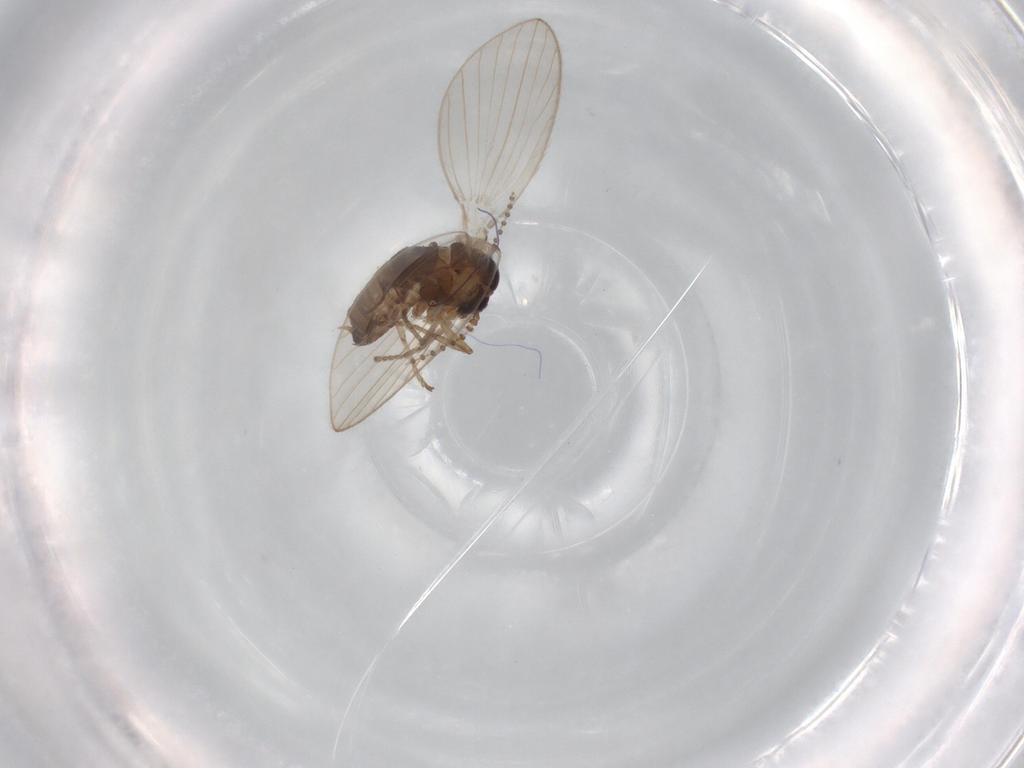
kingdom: Animalia
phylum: Arthropoda
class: Insecta
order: Diptera
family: Psychodidae
